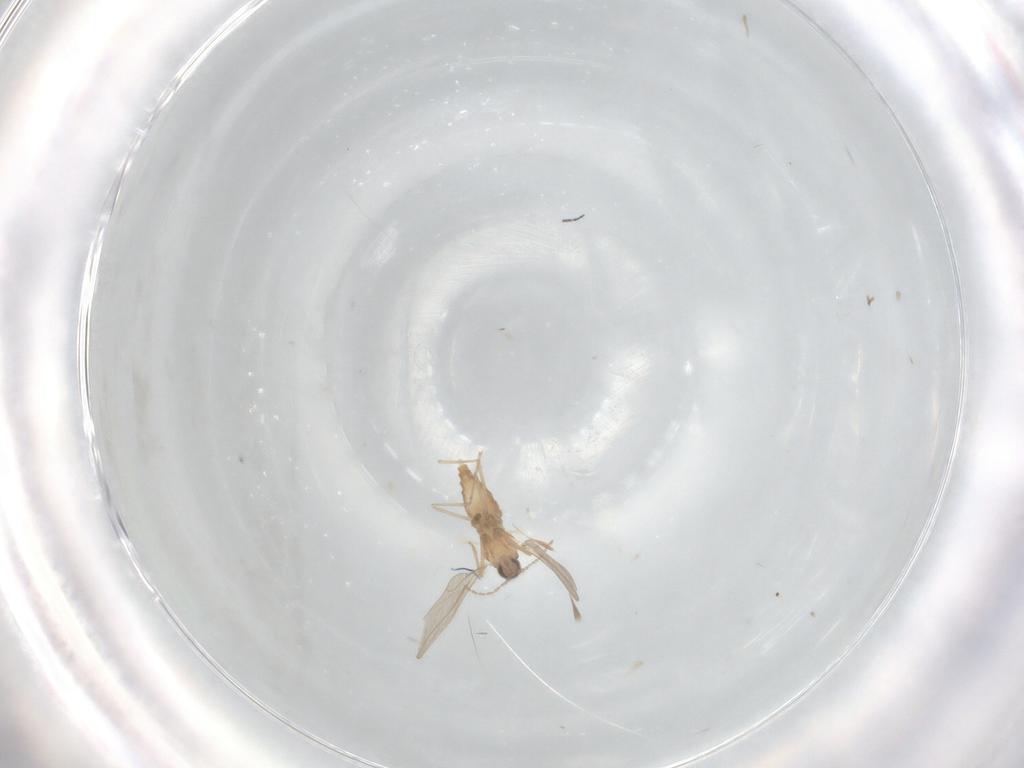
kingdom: Animalia
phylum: Arthropoda
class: Insecta
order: Diptera
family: Cecidomyiidae
